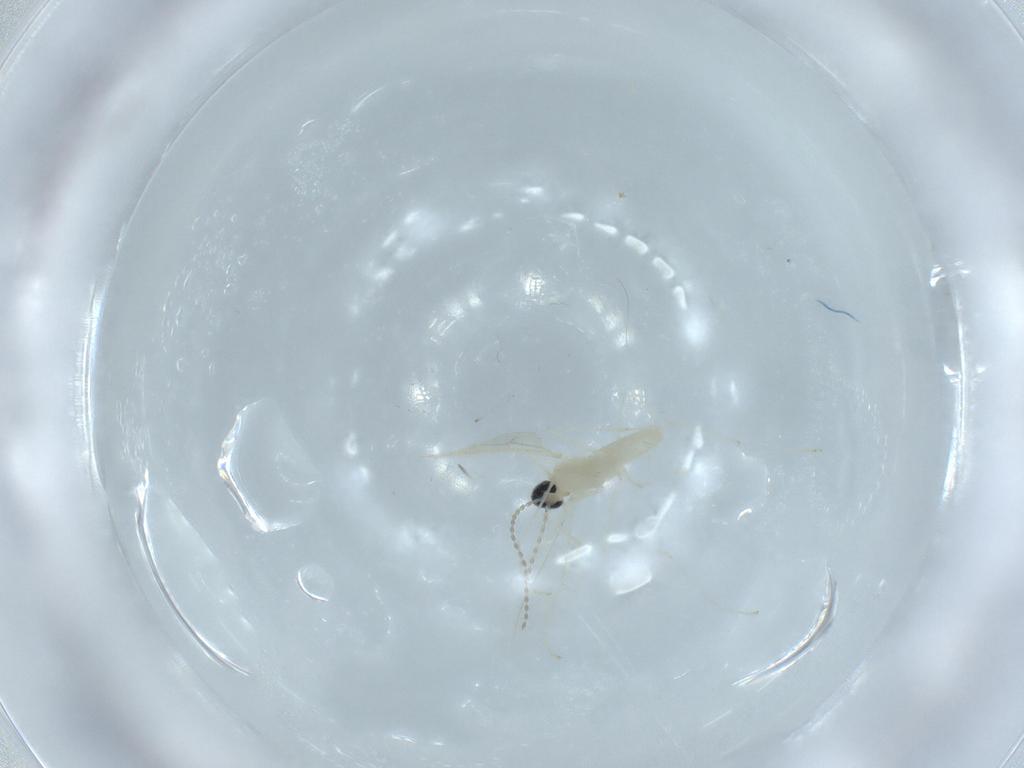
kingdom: Animalia
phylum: Arthropoda
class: Insecta
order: Diptera
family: Cecidomyiidae
